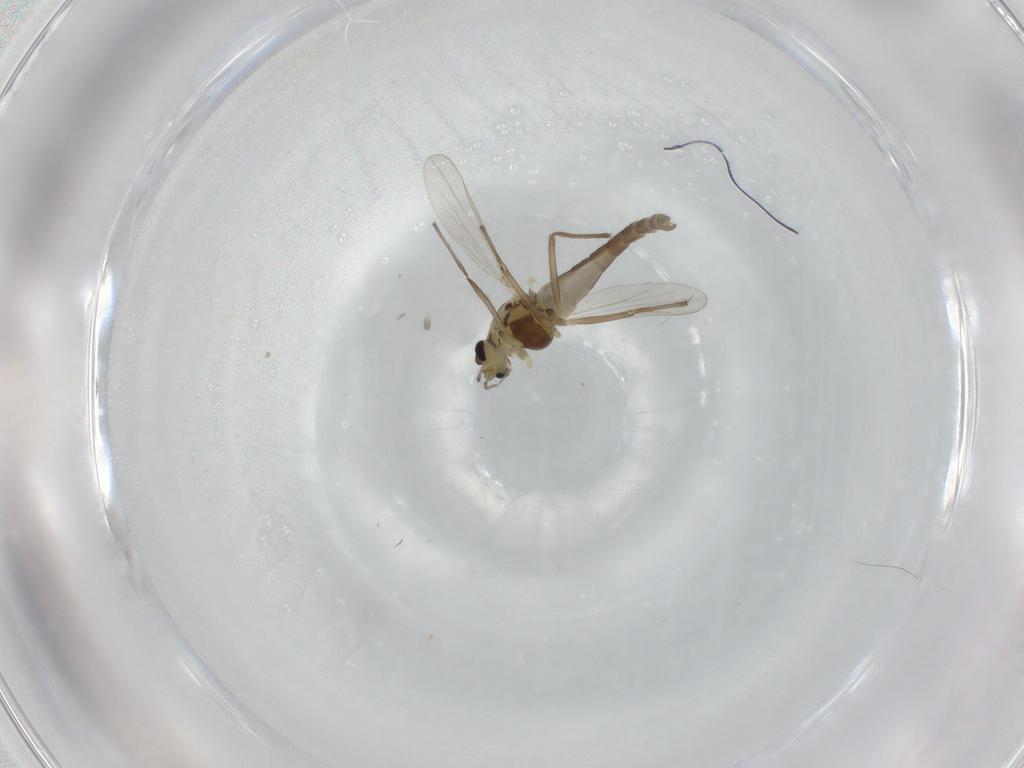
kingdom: Animalia
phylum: Arthropoda
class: Insecta
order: Diptera
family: Chironomidae
